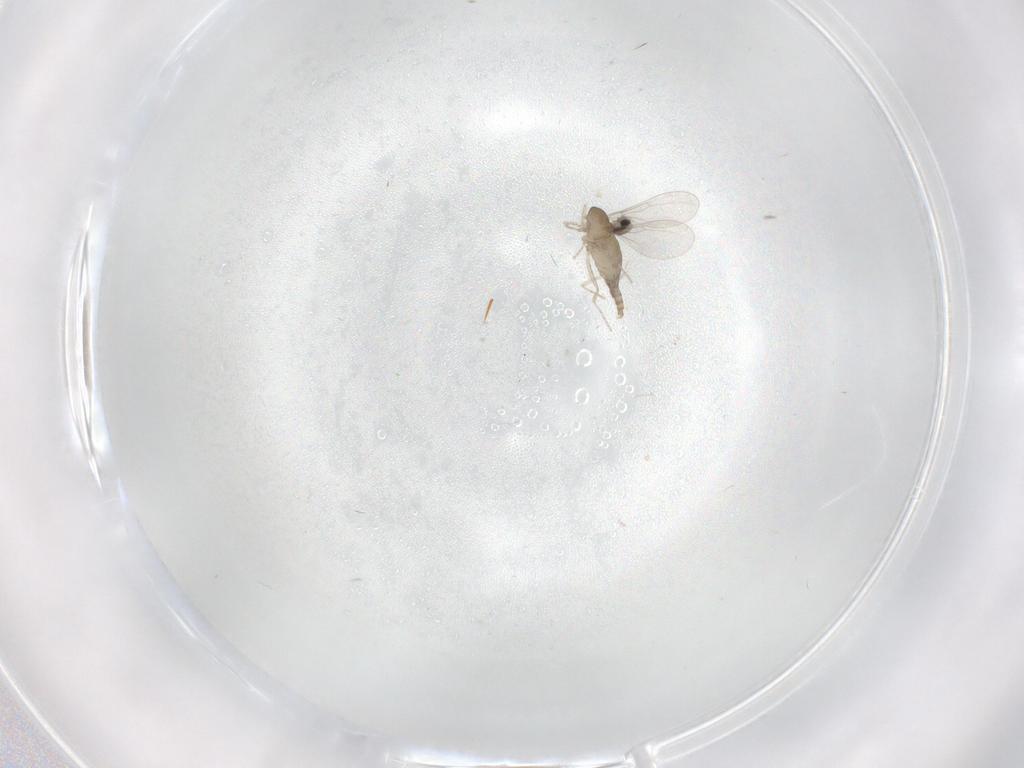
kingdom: Animalia
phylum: Arthropoda
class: Insecta
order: Diptera
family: Cecidomyiidae
